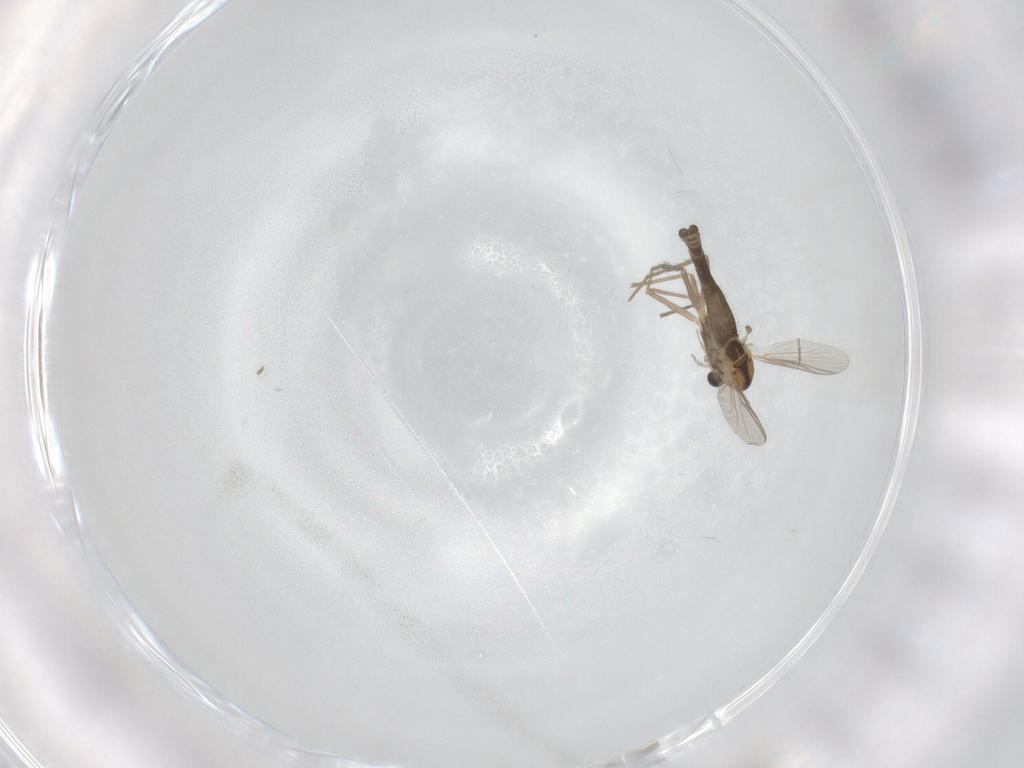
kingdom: Animalia
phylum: Arthropoda
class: Insecta
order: Diptera
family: Chironomidae
